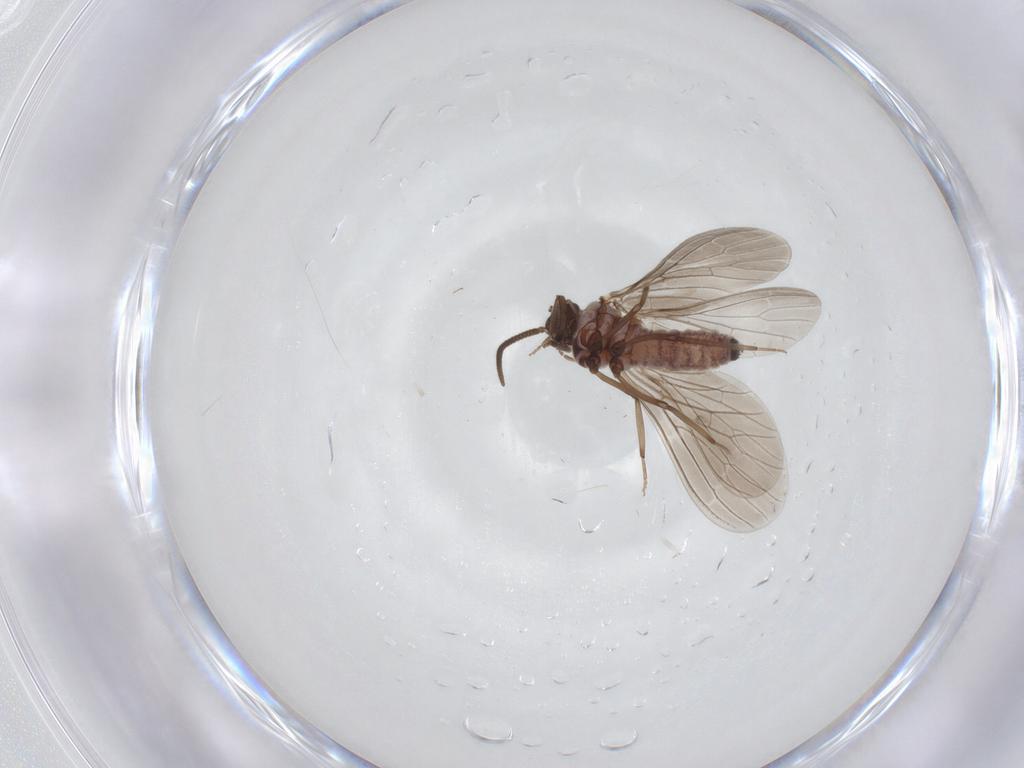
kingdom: Animalia
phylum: Arthropoda
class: Insecta
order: Neuroptera
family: Coniopterygidae
